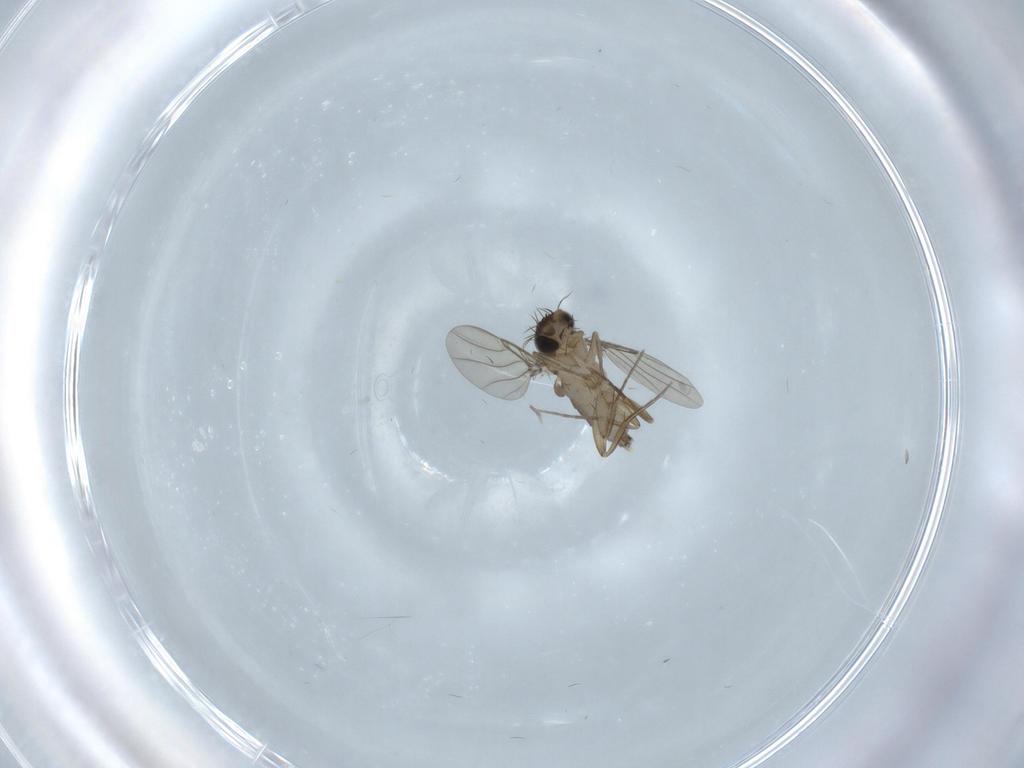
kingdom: Animalia
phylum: Arthropoda
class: Insecta
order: Diptera
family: Phoridae
